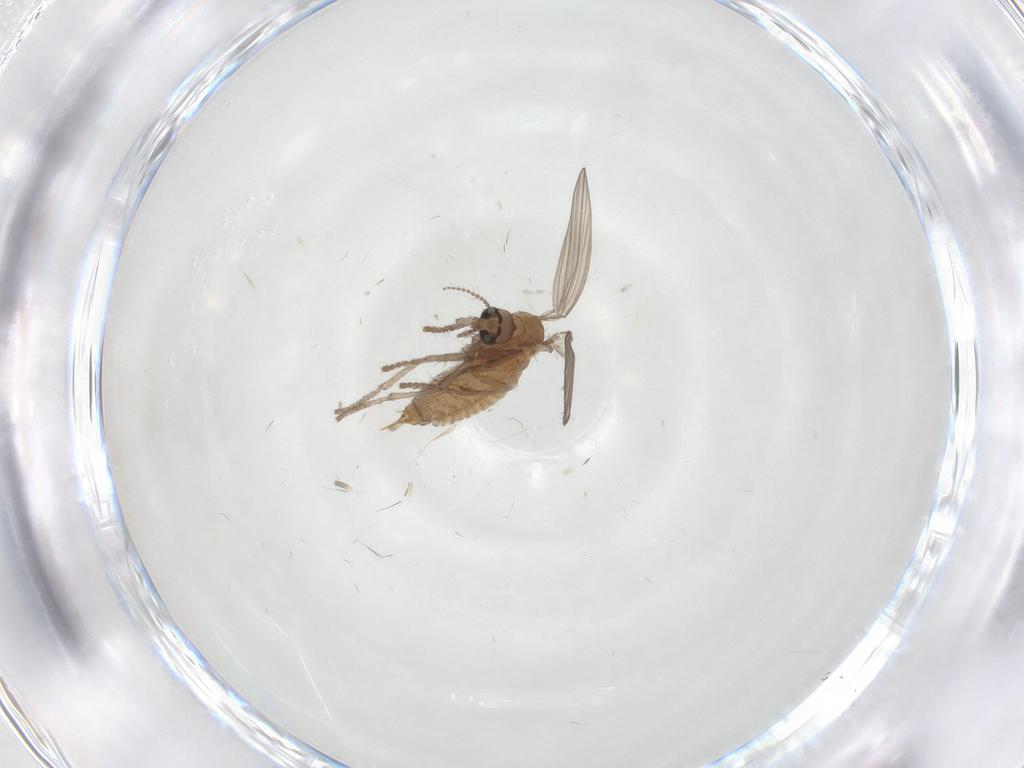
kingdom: Animalia
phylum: Arthropoda
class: Insecta
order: Diptera
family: Psychodidae
